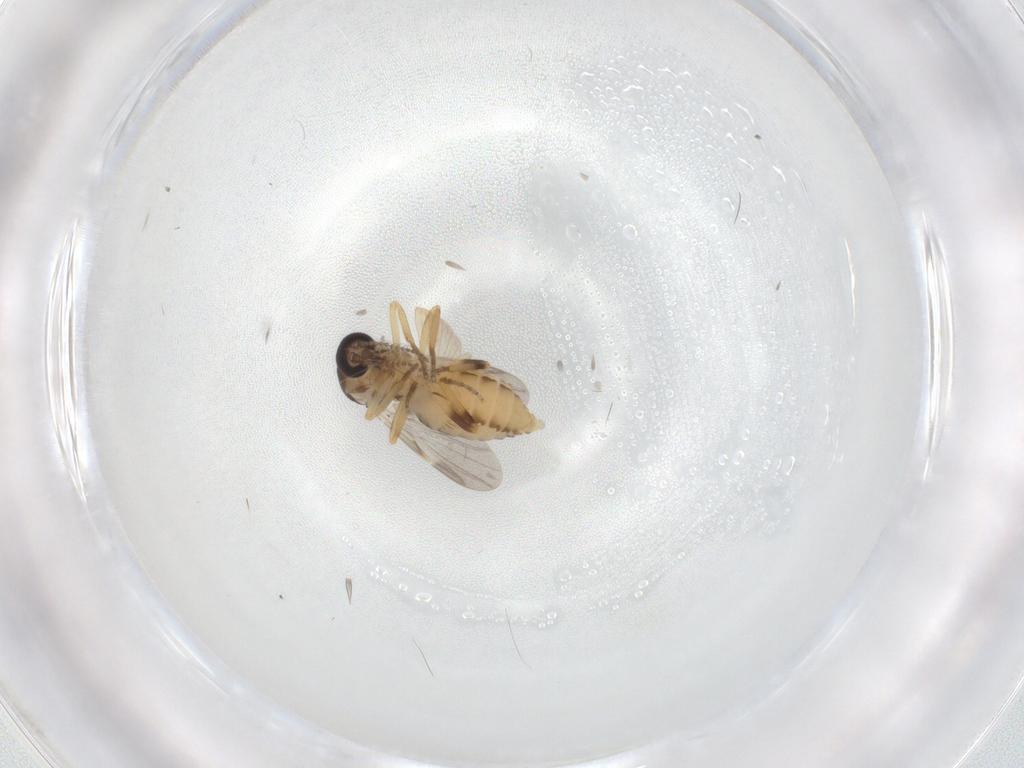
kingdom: Animalia
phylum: Arthropoda
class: Insecta
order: Diptera
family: Ceratopogonidae
